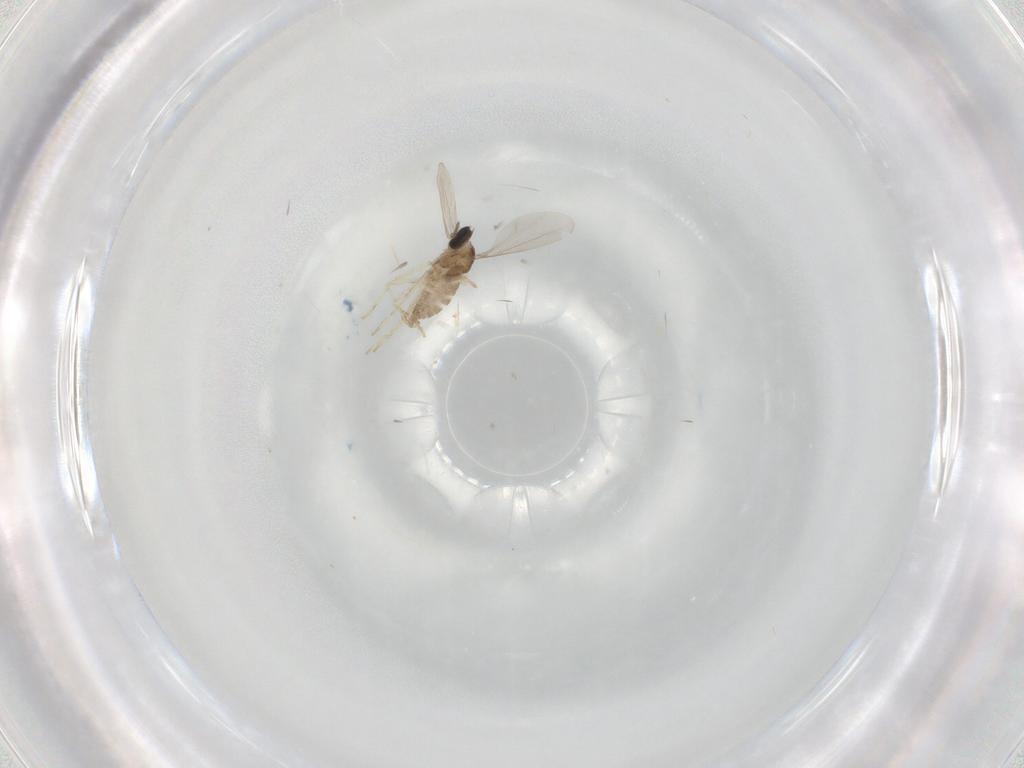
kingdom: Animalia
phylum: Arthropoda
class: Insecta
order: Diptera
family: Cecidomyiidae
